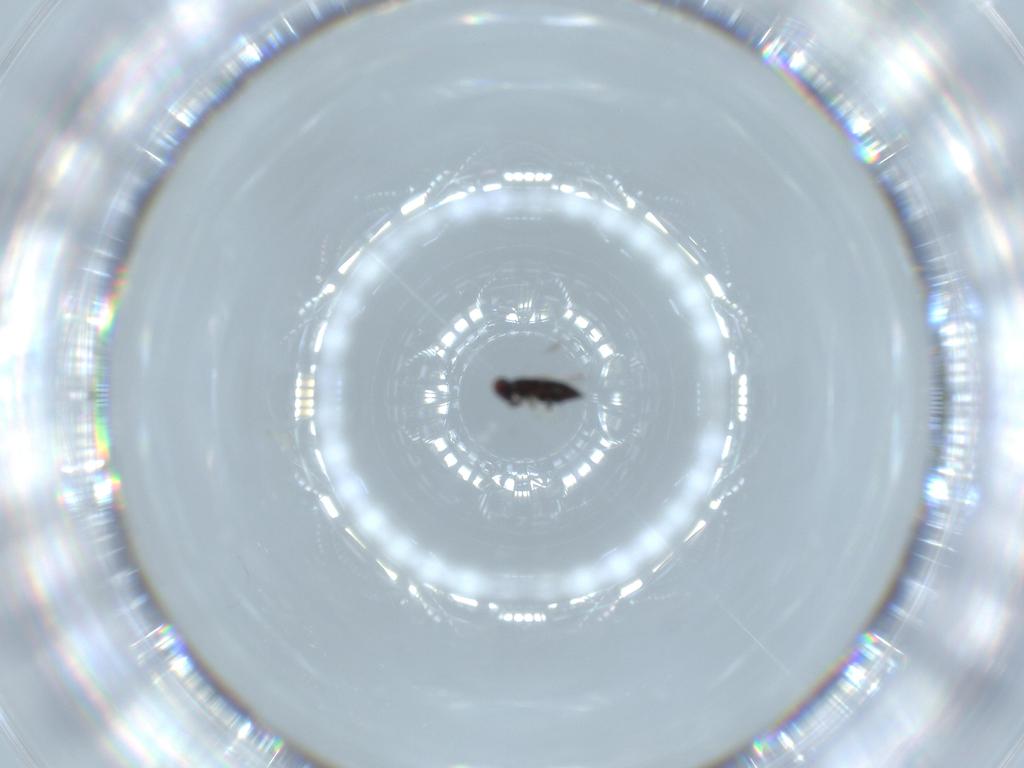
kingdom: Animalia
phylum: Arthropoda
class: Insecta
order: Hymenoptera
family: Signiphoridae
